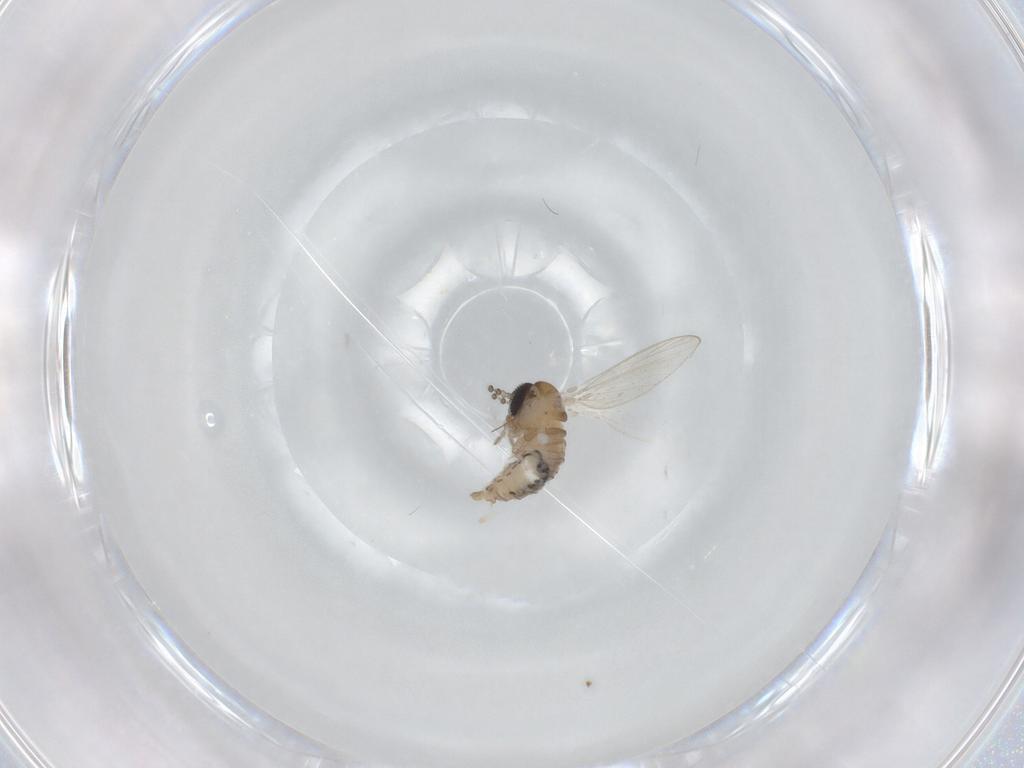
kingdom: Animalia
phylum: Arthropoda
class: Insecta
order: Diptera
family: Psychodidae
